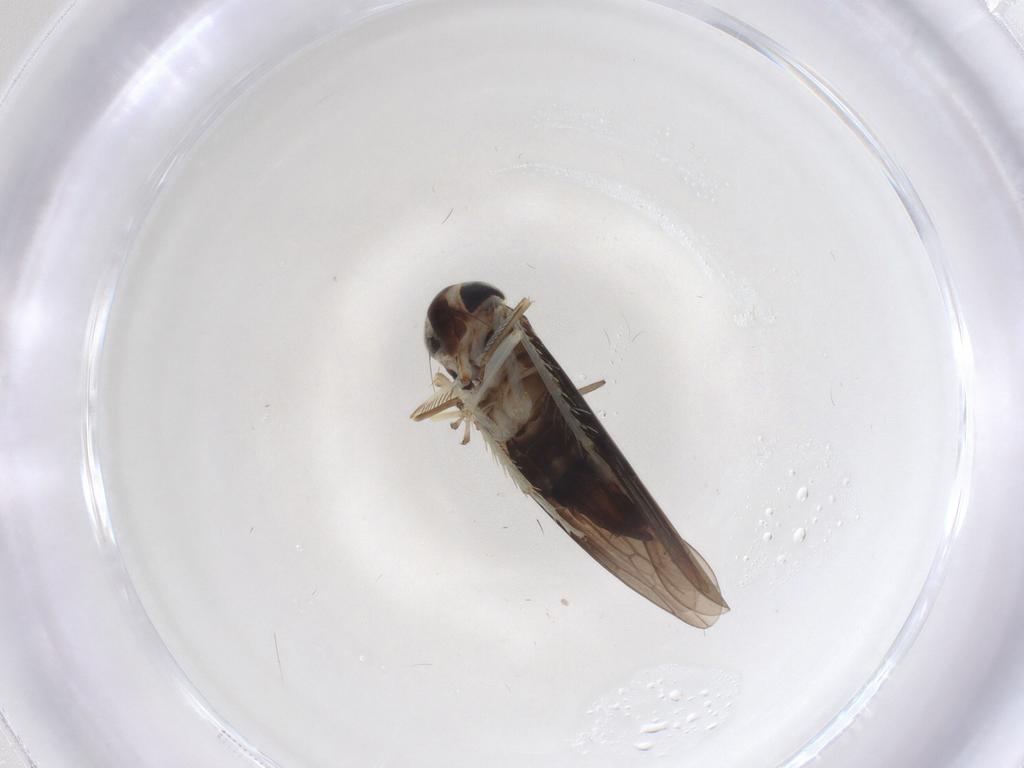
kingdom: Animalia
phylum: Arthropoda
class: Insecta
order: Hemiptera
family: Cicadellidae
